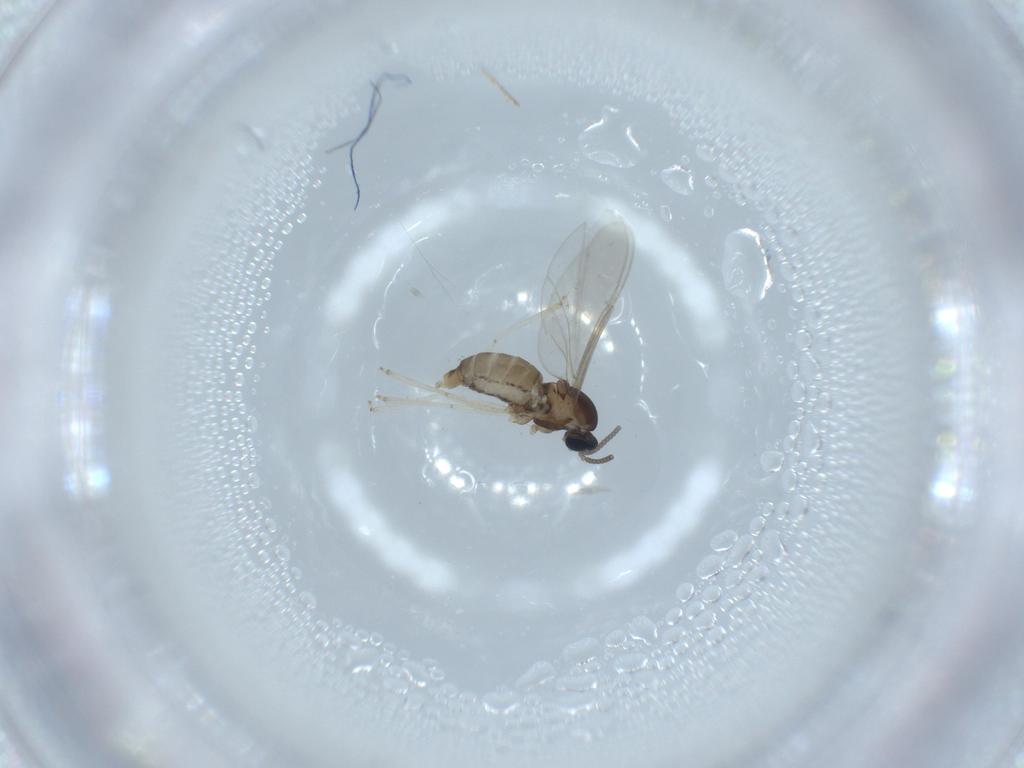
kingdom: Animalia
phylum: Arthropoda
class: Insecta
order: Diptera
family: Cecidomyiidae
